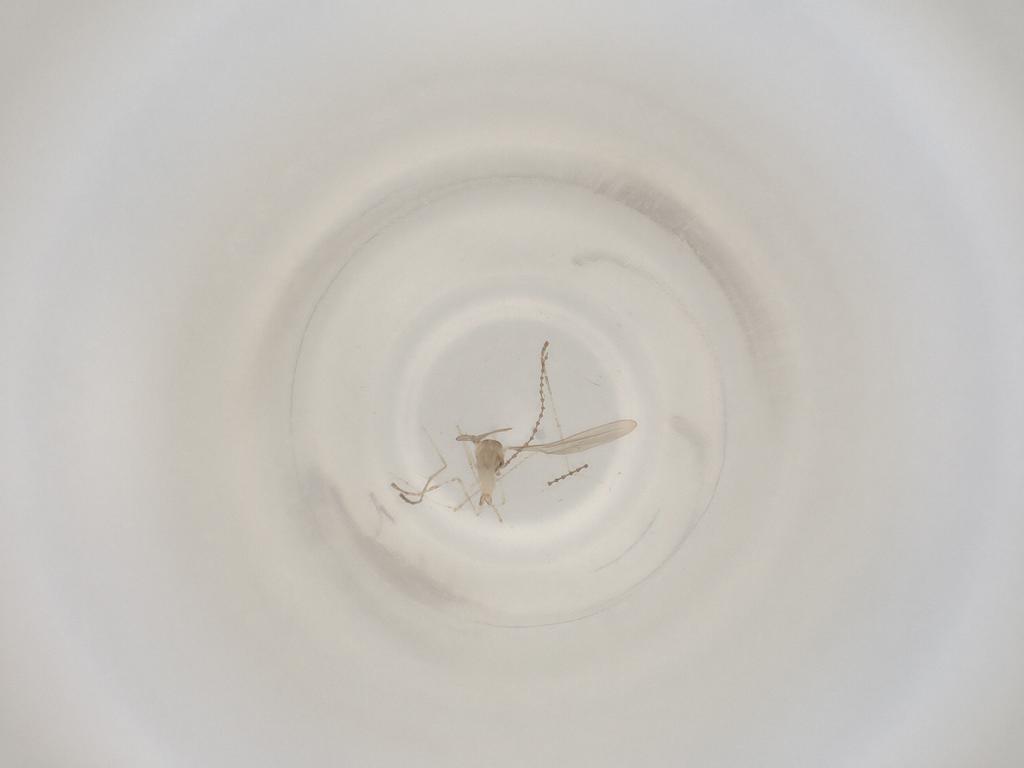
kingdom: Animalia
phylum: Arthropoda
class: Insecta
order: Diptera
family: Cecidomyiidae
